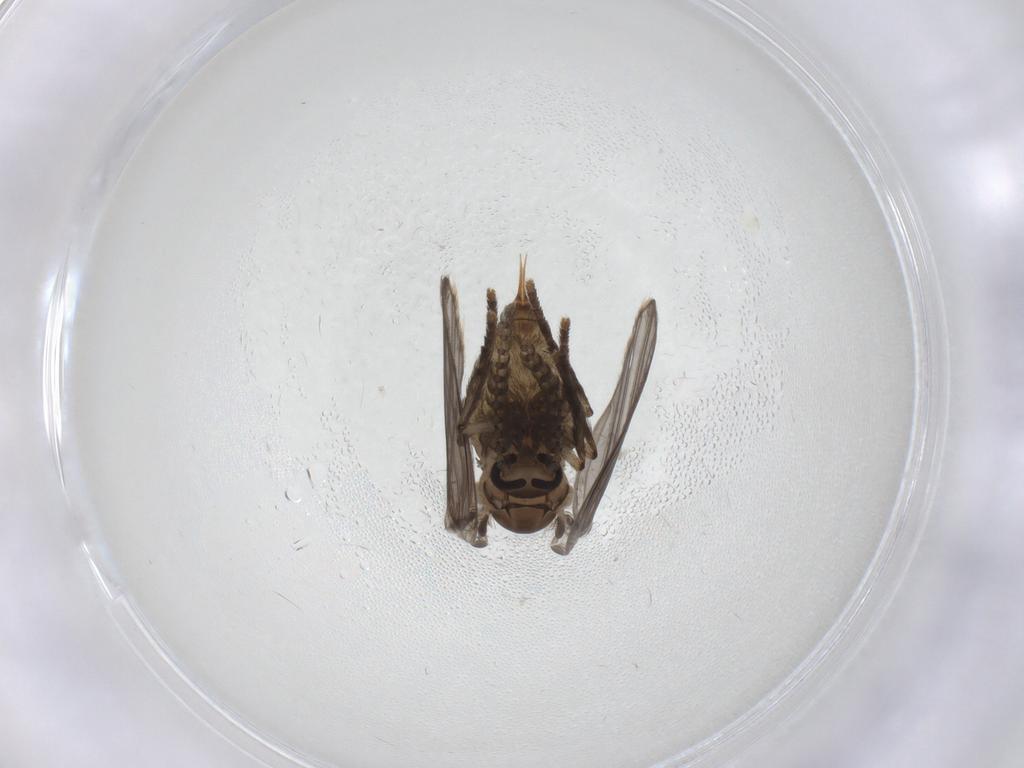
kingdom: Animalia
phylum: Arthropoda
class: Insecta
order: Diptera
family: Psychodidae
